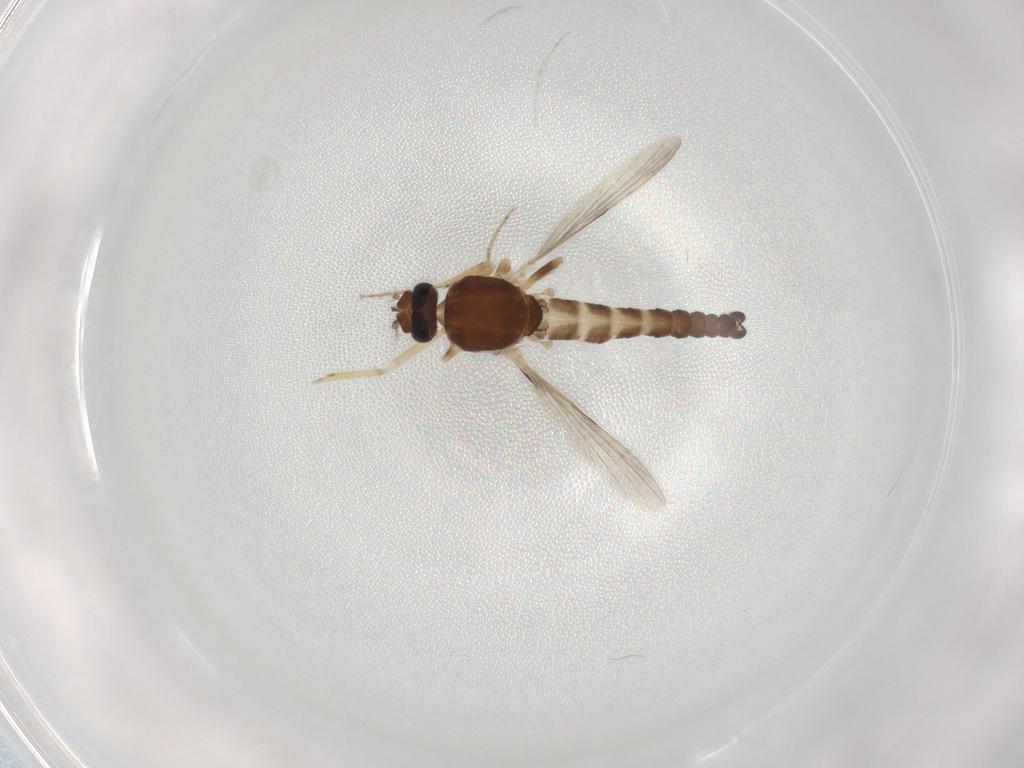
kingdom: Animalia
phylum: Arthropoda
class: Insecta
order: Diptera
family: Ceratopogonidae
